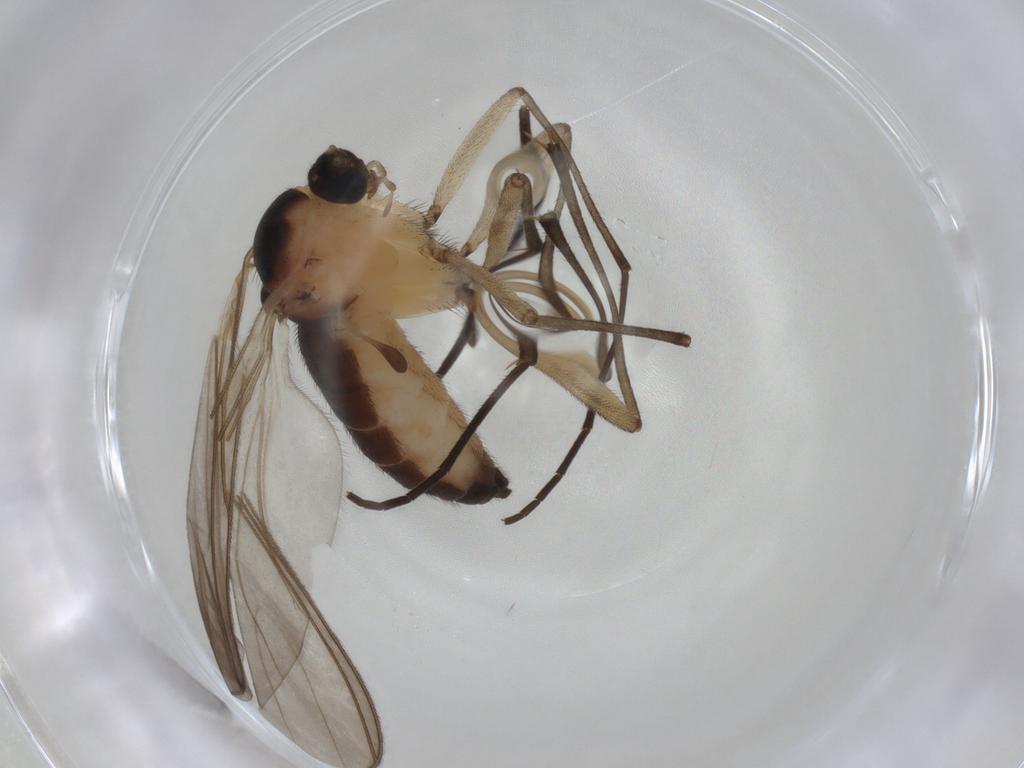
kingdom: Animalia
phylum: Arthropoda
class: Insecta
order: Diptera
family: Sciaridae
